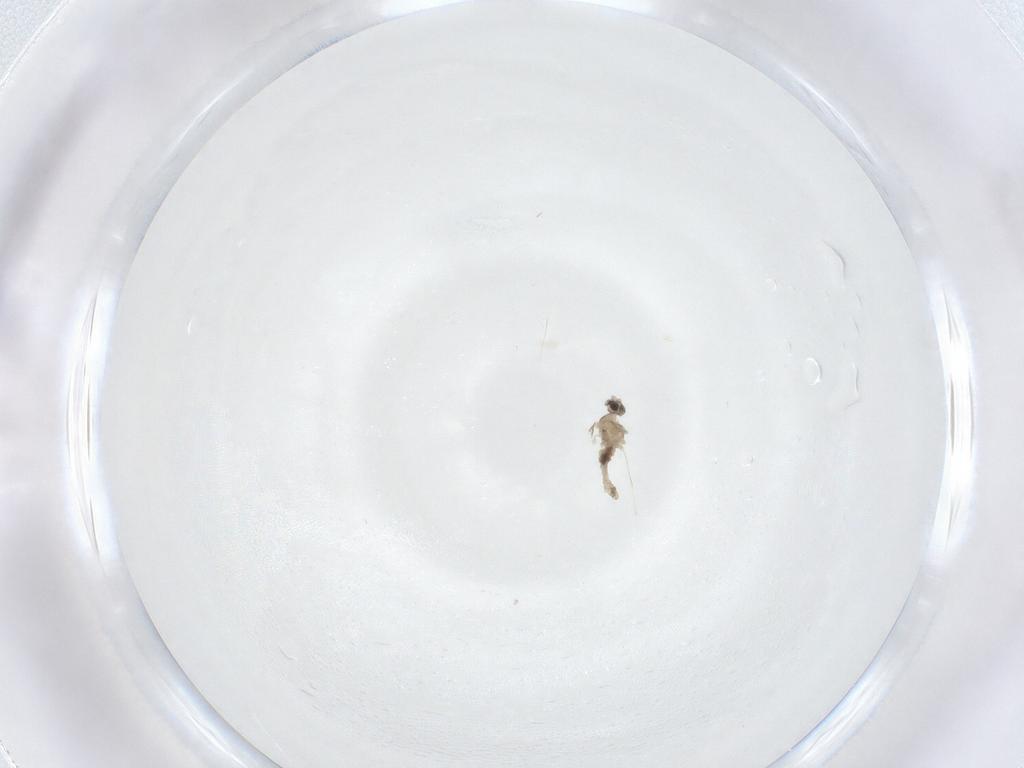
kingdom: Animalia
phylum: Arthropoda
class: Insecta
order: Diptera
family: Cecidomyiidae
